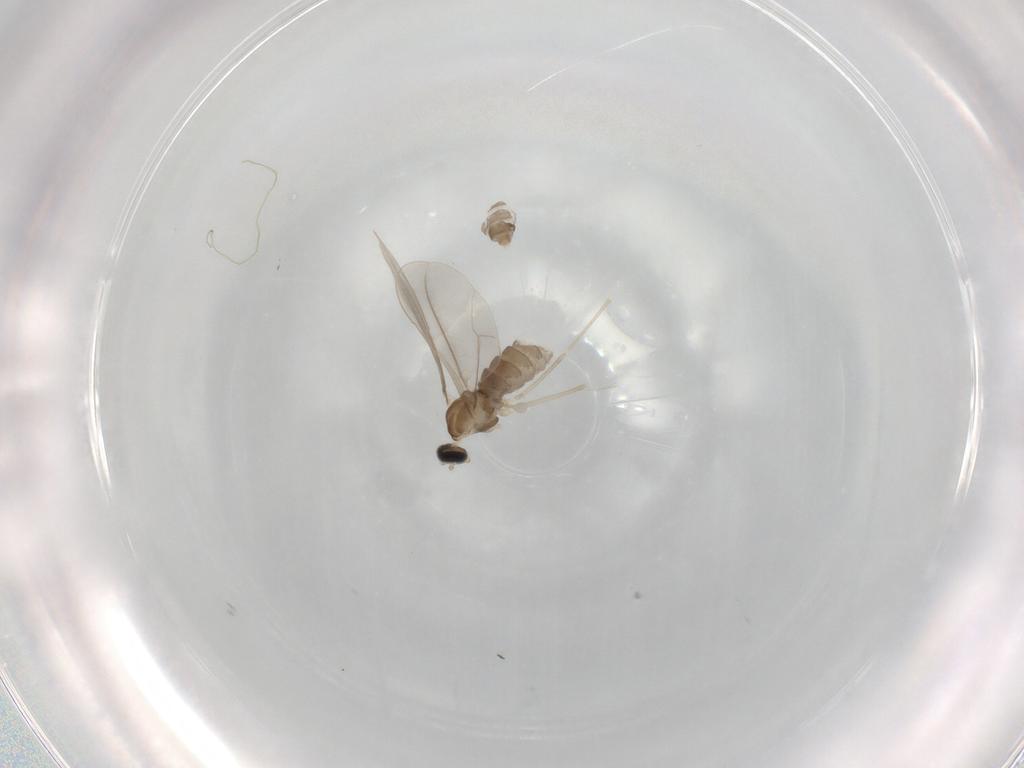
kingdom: Animalia
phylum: Arthropoda
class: Insecta
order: Diptera
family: Cecidomyiidae
